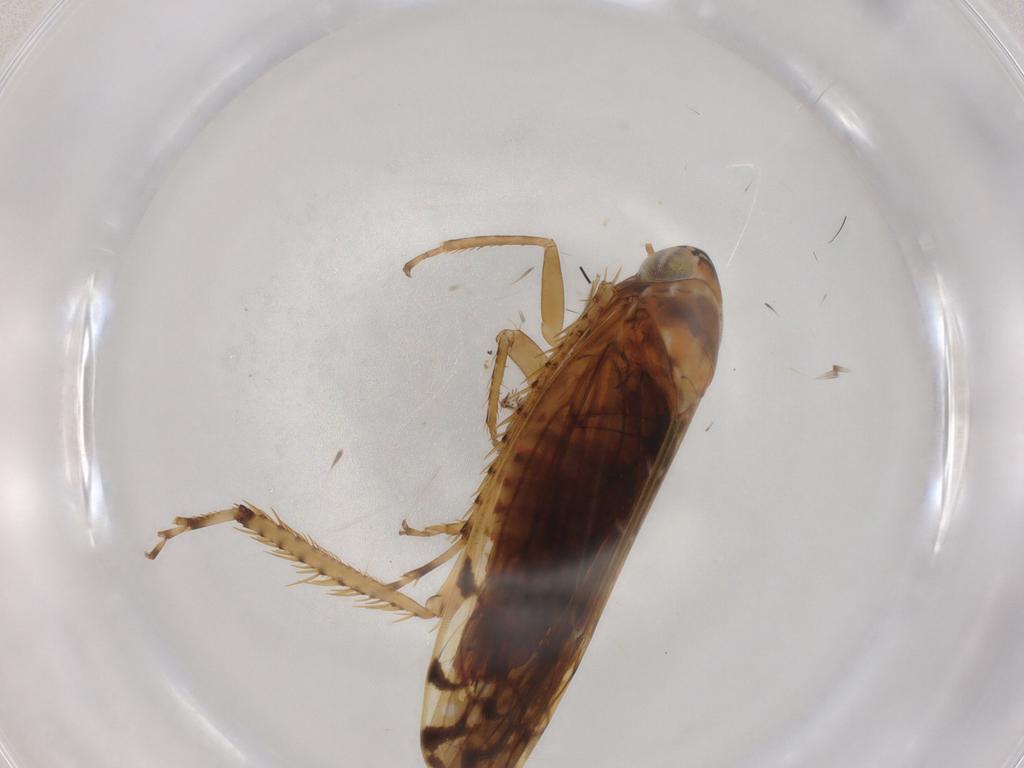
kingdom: Animalia
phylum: Arthropoda
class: Insecta
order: Hemiptera
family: Cicadellidae
